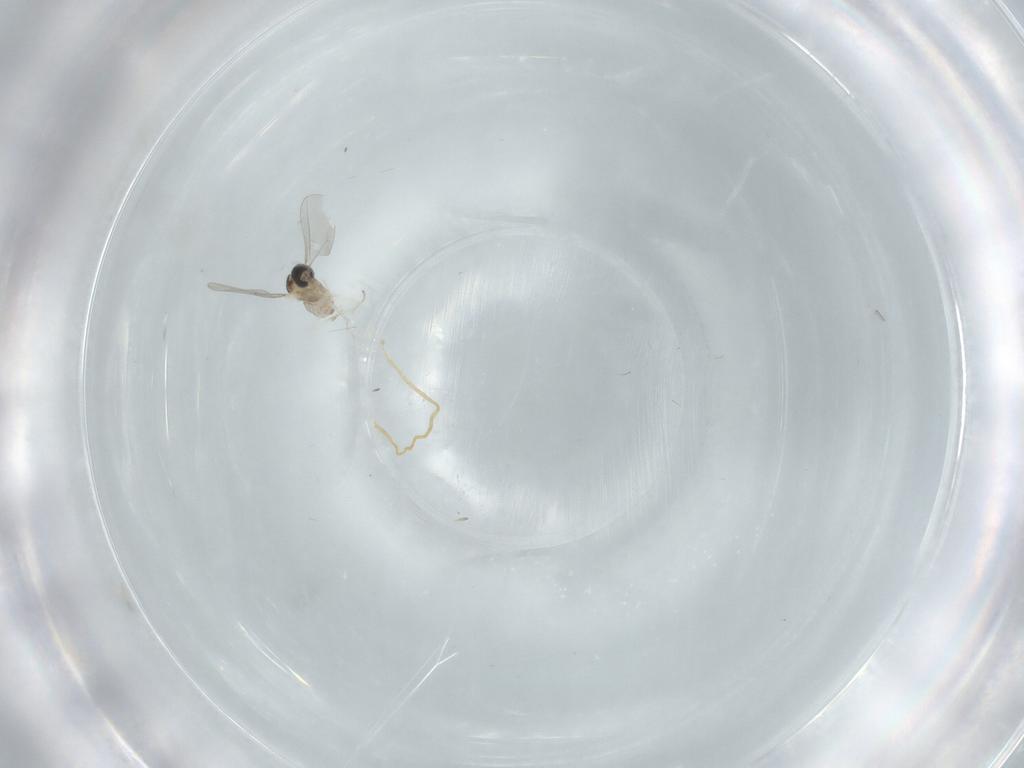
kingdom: Animalia
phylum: Arthropoda
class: Insecta
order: Diptera
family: Cecidomyiidae
